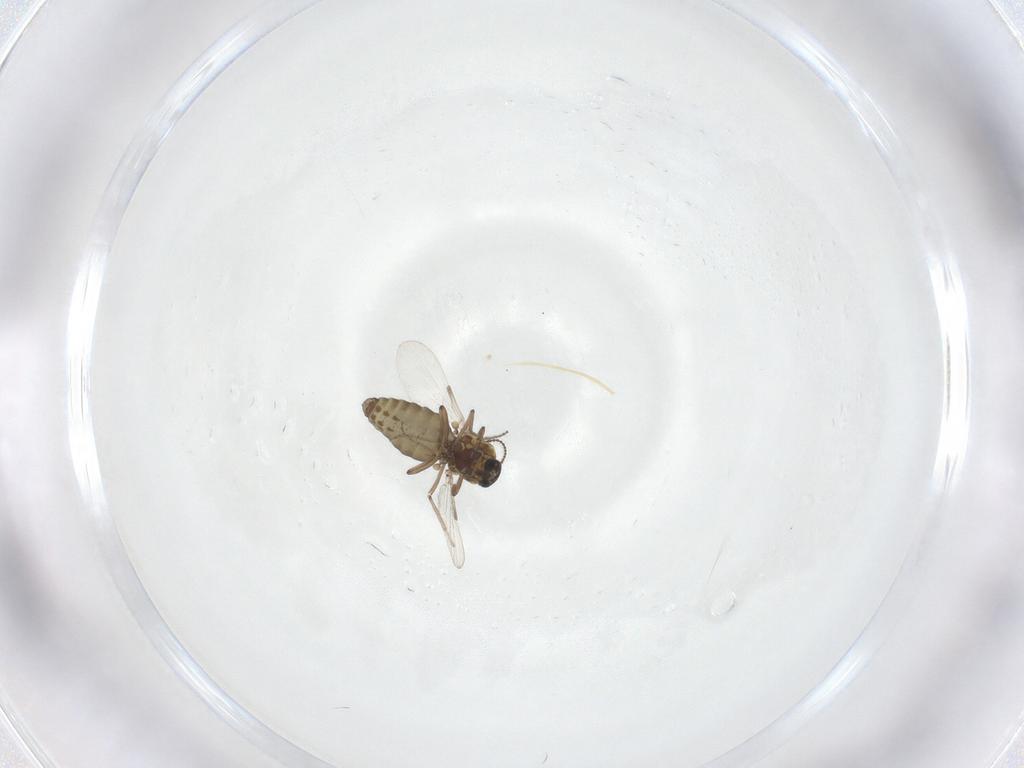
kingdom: Animalia
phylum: Arthropoda
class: Insecta
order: Diptera
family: Ceratopogonidae
